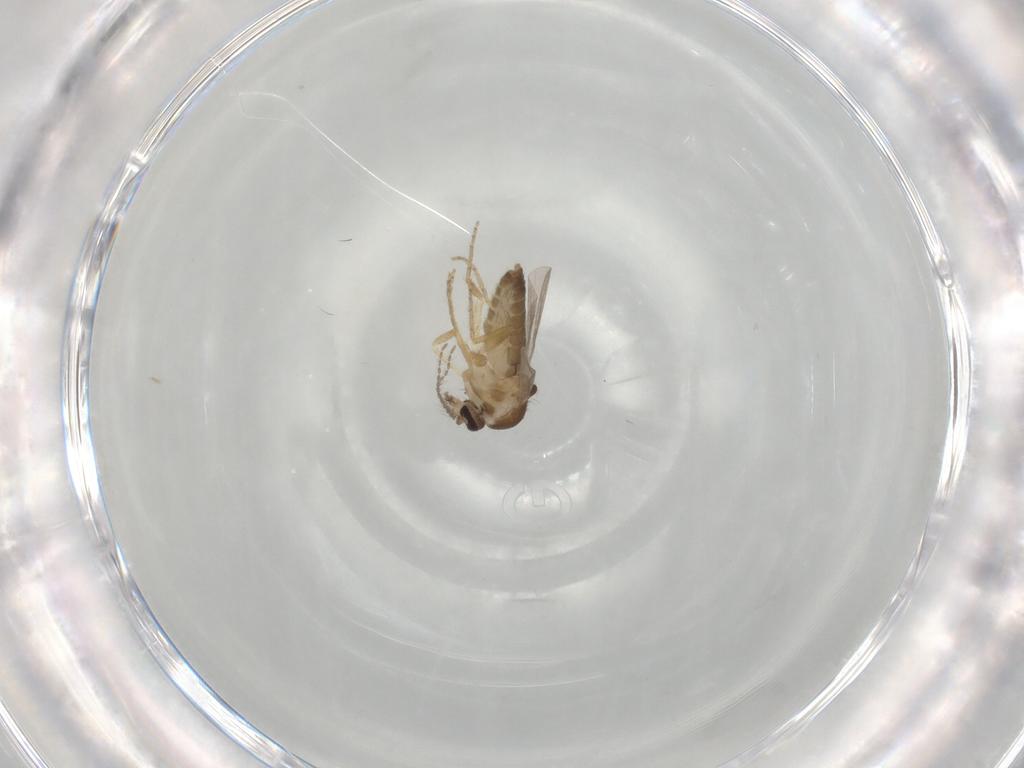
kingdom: Animalia
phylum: Arthropoda
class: Insecta
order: Diptera
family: Ceratopogonidae
